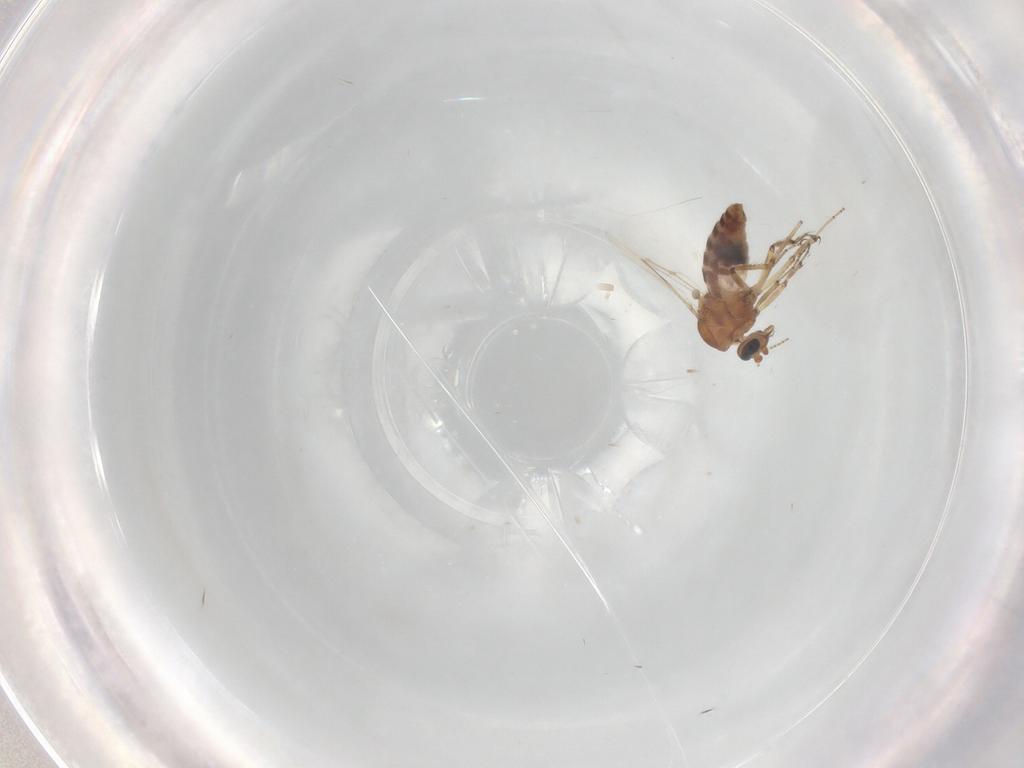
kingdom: Animalia
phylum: Arthropoda
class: Insecta
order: Diptera
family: Cecidomyiidae
